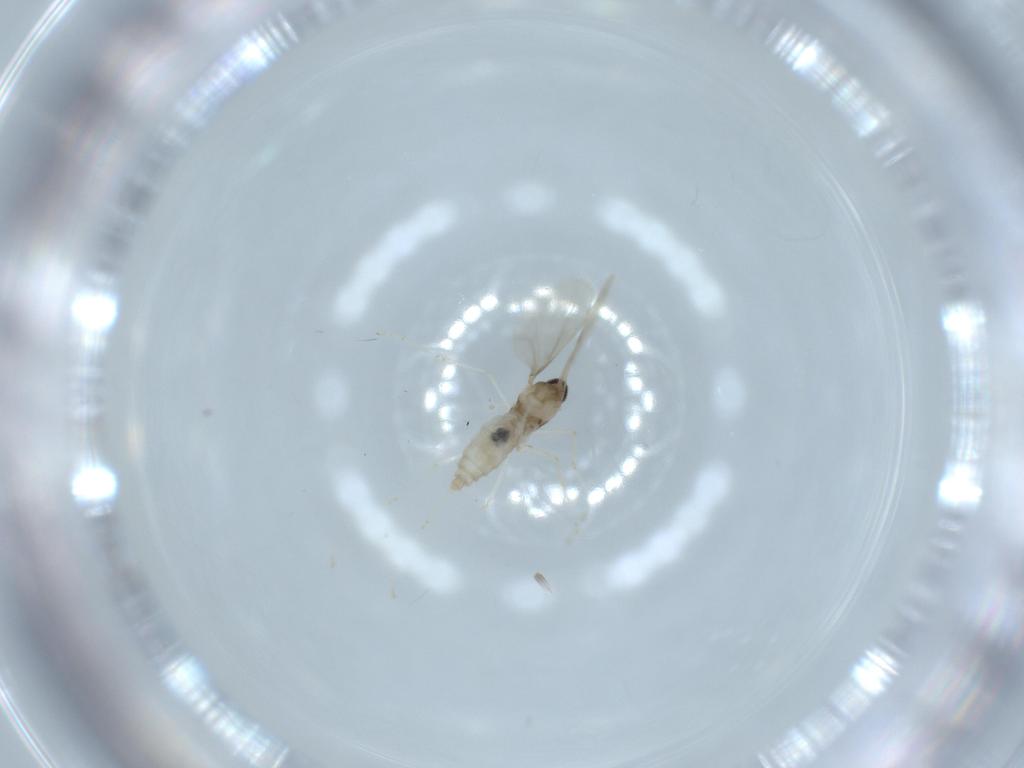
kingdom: Animalia
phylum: Arthropoda
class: Insecta
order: Diptera
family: Cecidomyiidae
